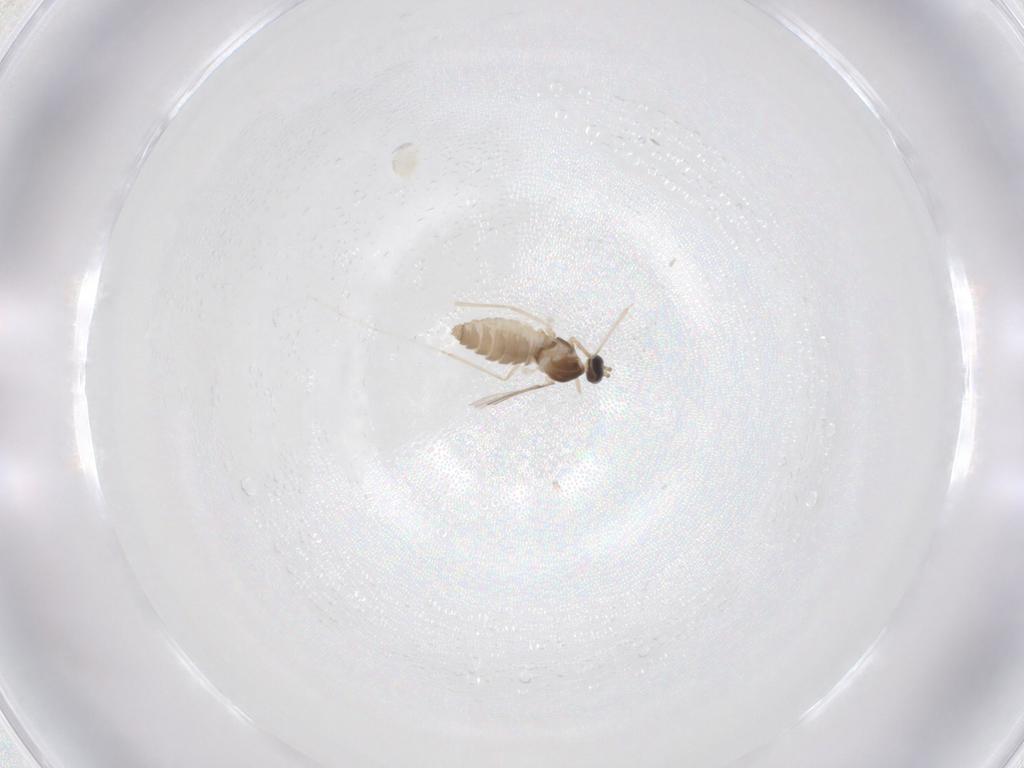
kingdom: Animalia
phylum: Arthropoda
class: Insecta
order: Diptera
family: Cecidomyiidae
